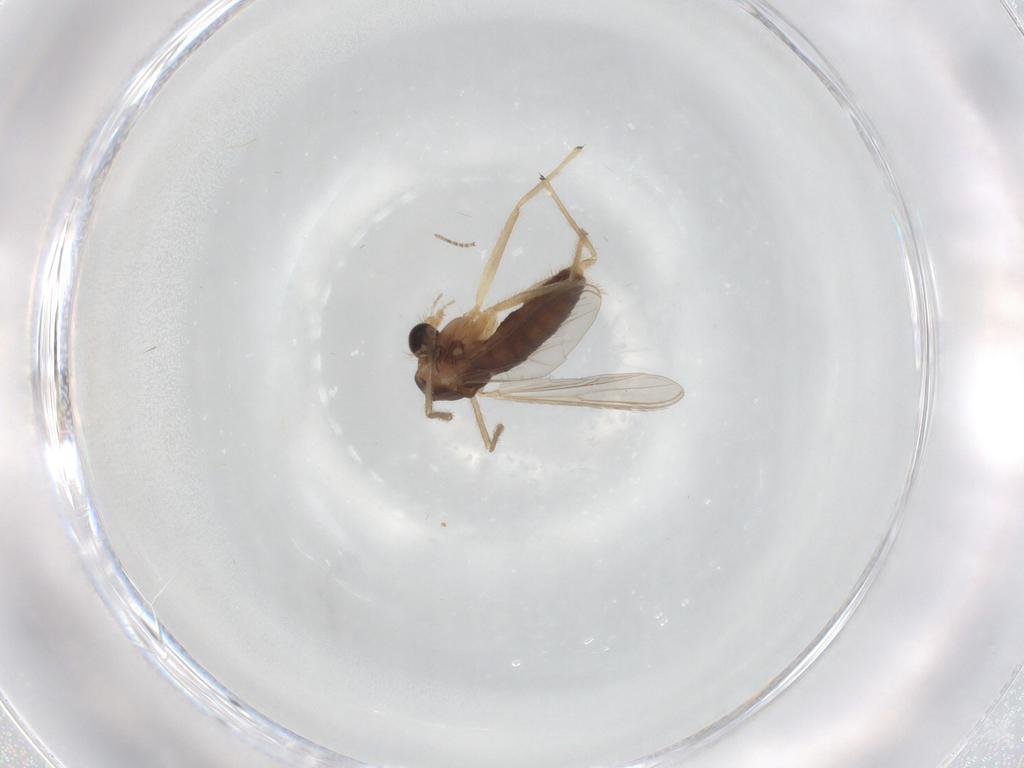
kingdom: Animalia
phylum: Arthropoda
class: Insecta
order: Diptera
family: Chironomidae
